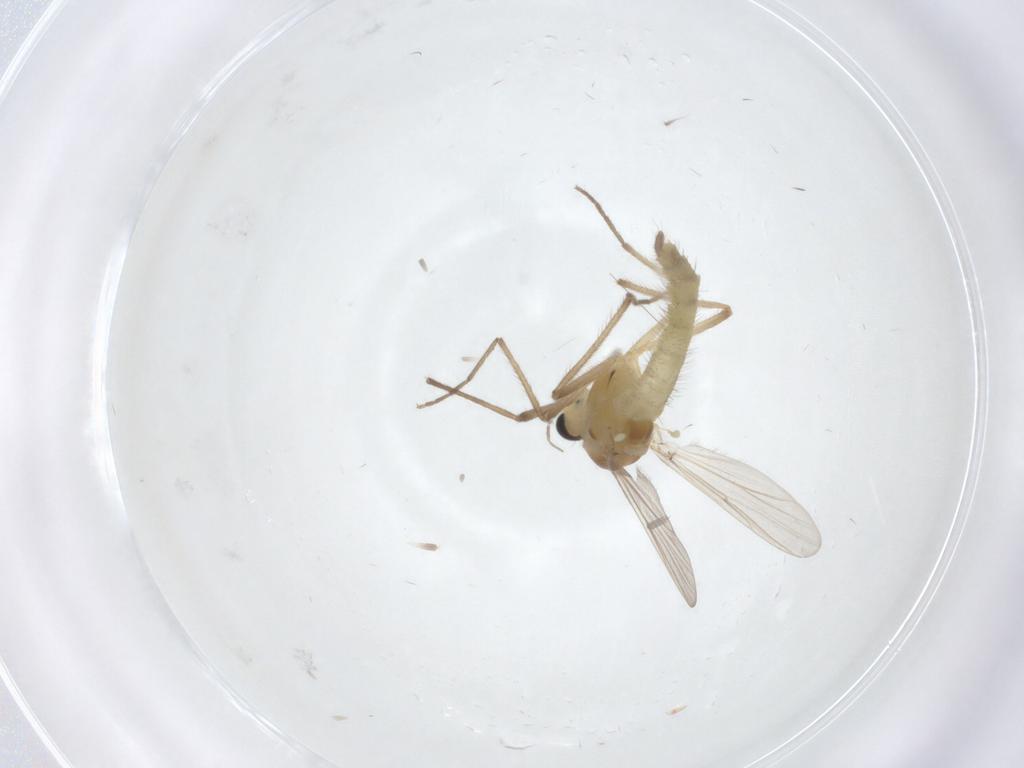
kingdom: Animalia
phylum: Arthropoda
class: Insecta
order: Diptera
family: Chironomidae
